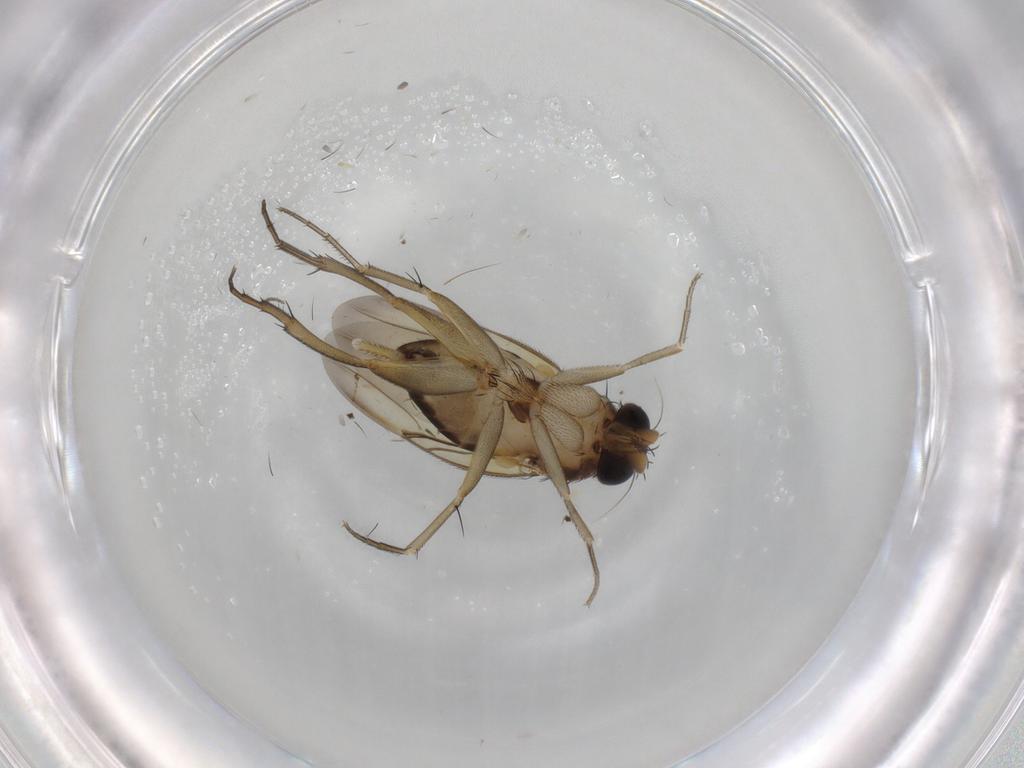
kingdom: Animalia
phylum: Arthropoda
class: Insecta
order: Diptera
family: Phoridae
